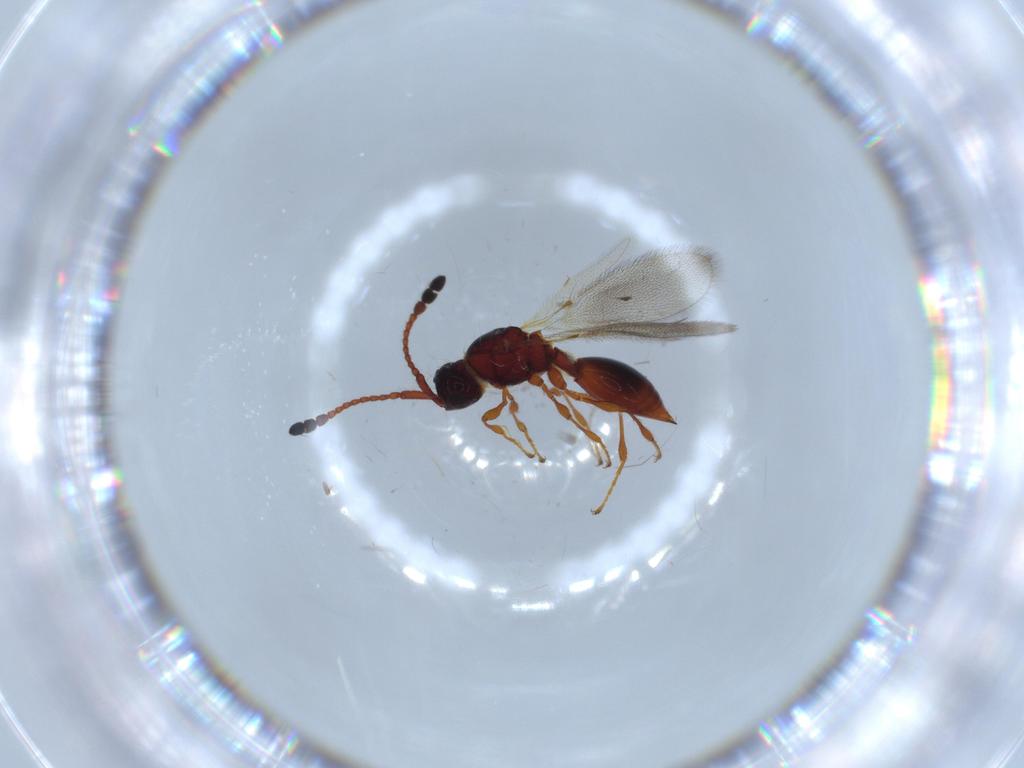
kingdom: Animalia
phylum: Arthropoda
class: Insecta
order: Hymenoptera
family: Diapriidae
